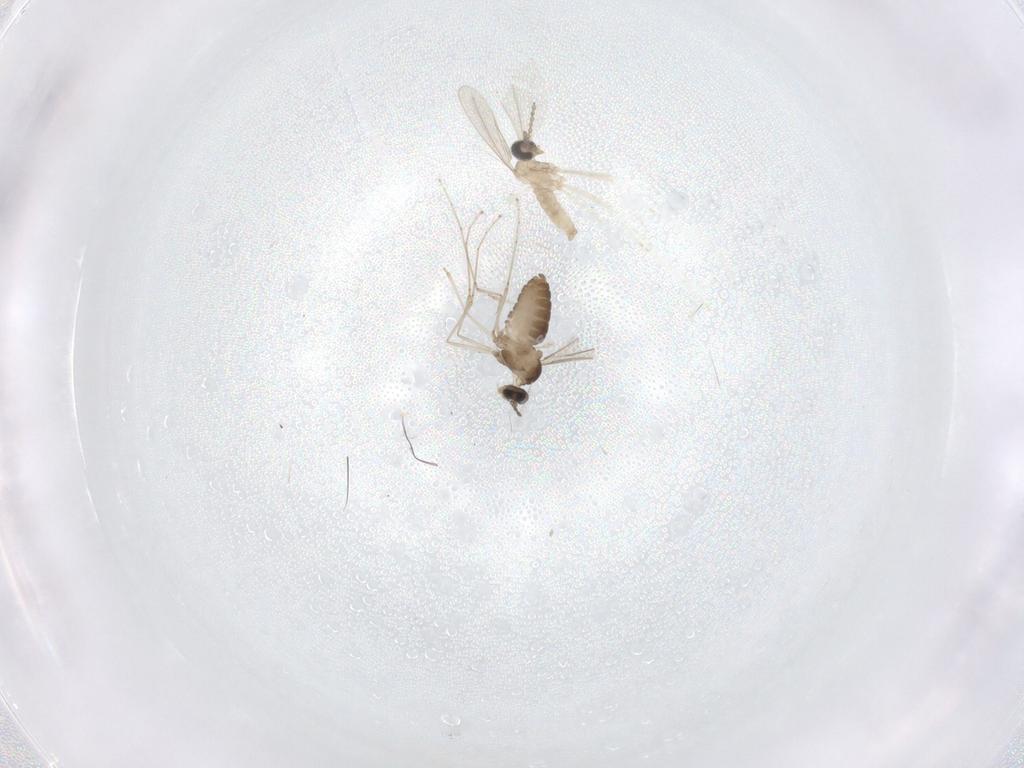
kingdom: Animalia
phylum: Arthropoda
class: Insecta
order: Diptera
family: Cecidomyiidae
